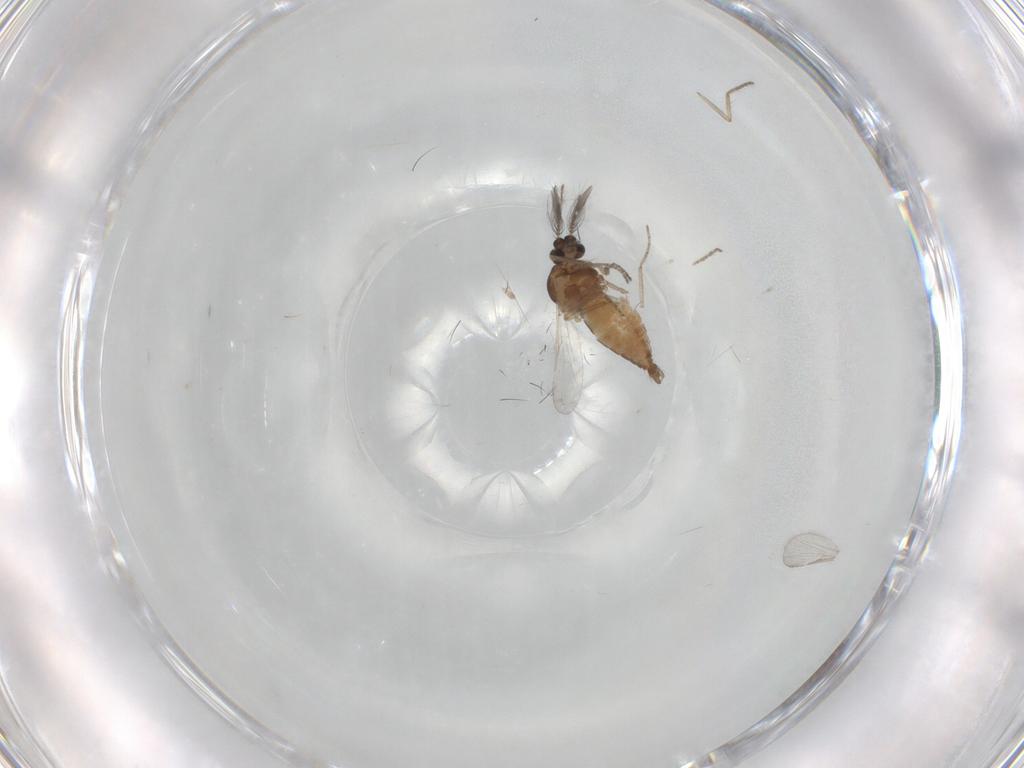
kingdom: Animalia
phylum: Arthropoda
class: Insecta
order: Diptera
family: Ceratopogonidae
